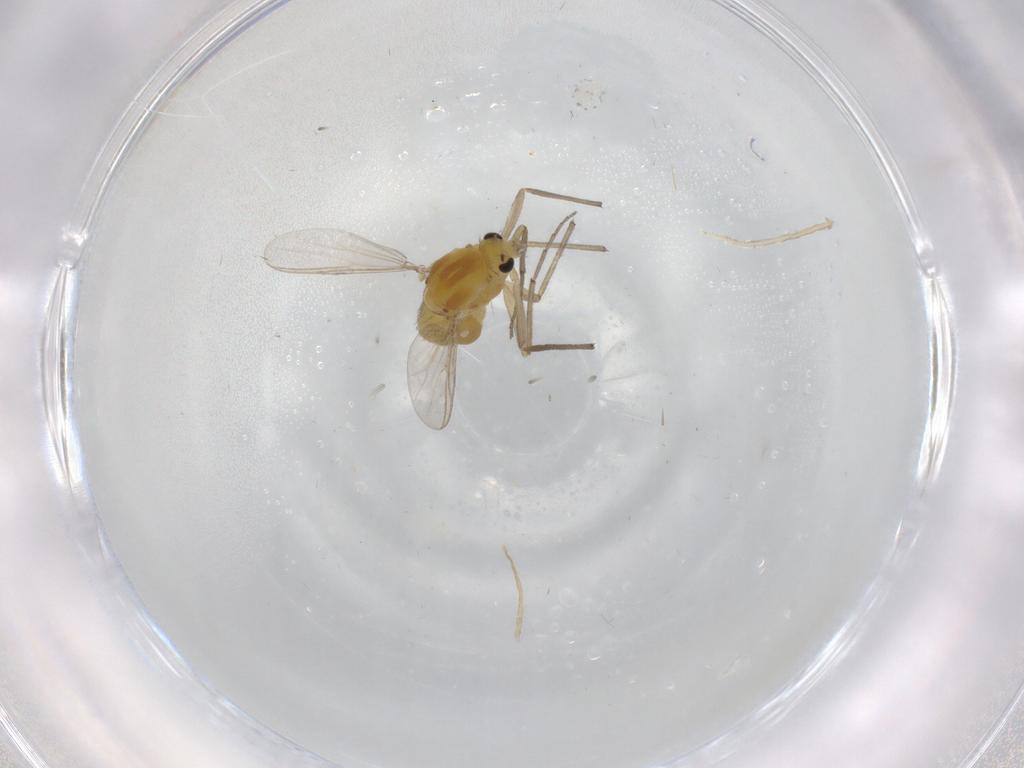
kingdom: Animalia
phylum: Arthropoda
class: Insecta
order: Diptera
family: Chironomidae
